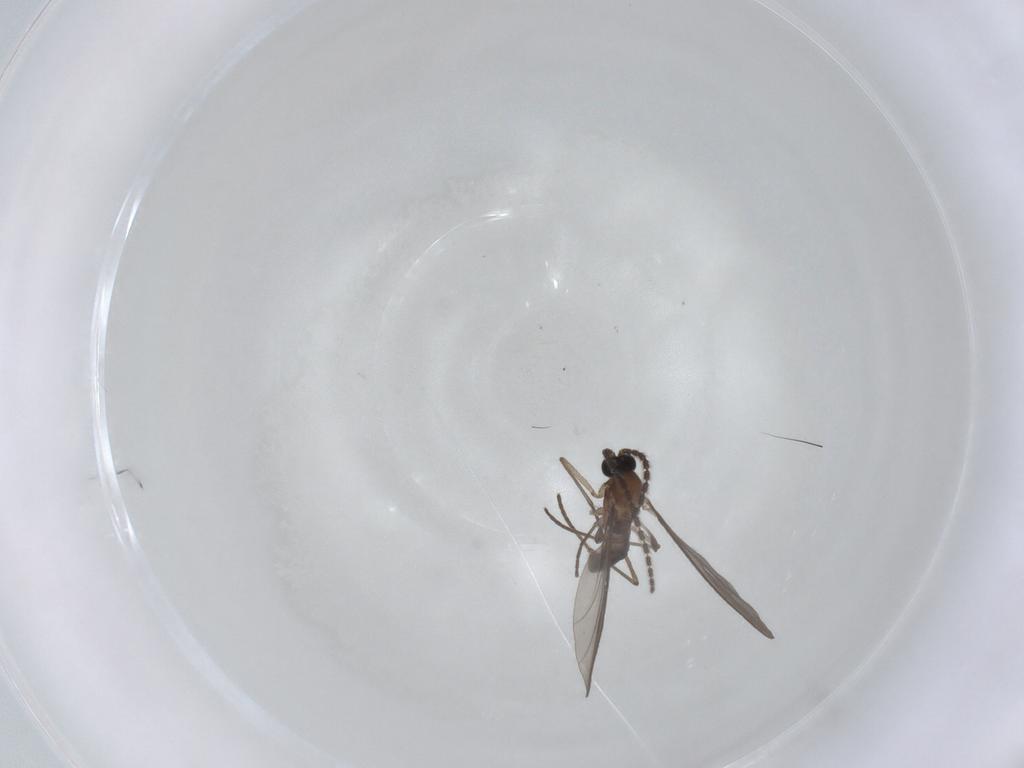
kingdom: Animalia
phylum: Arthropoda
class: Insecta
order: Diptera
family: Sciaridae
